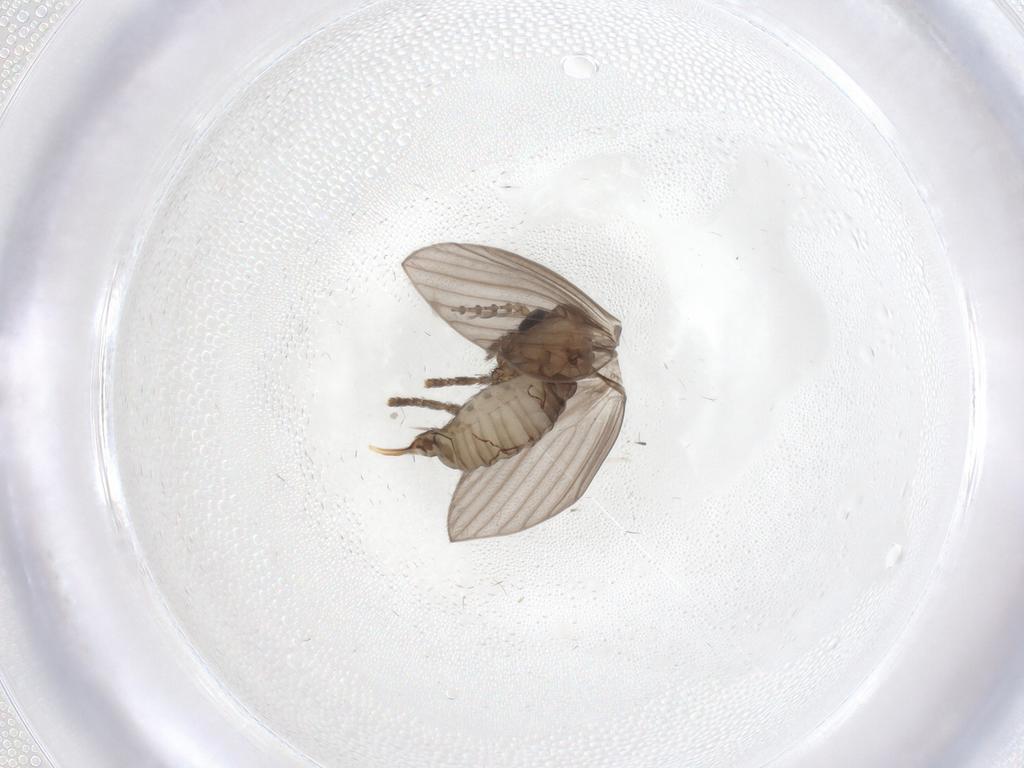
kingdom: Animalia
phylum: Arthropoda
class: Insecta
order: Diptera
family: Psychodidae
